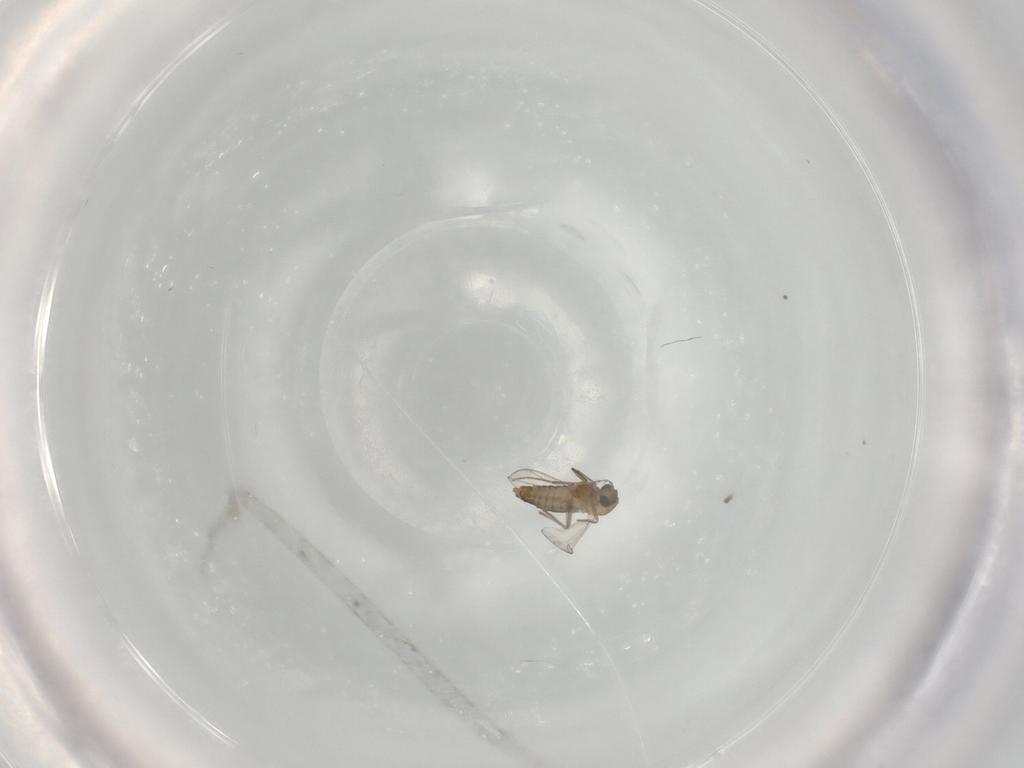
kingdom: Animalia
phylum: Arthropoda
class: Insecta
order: Diptera
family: Chironomidae
